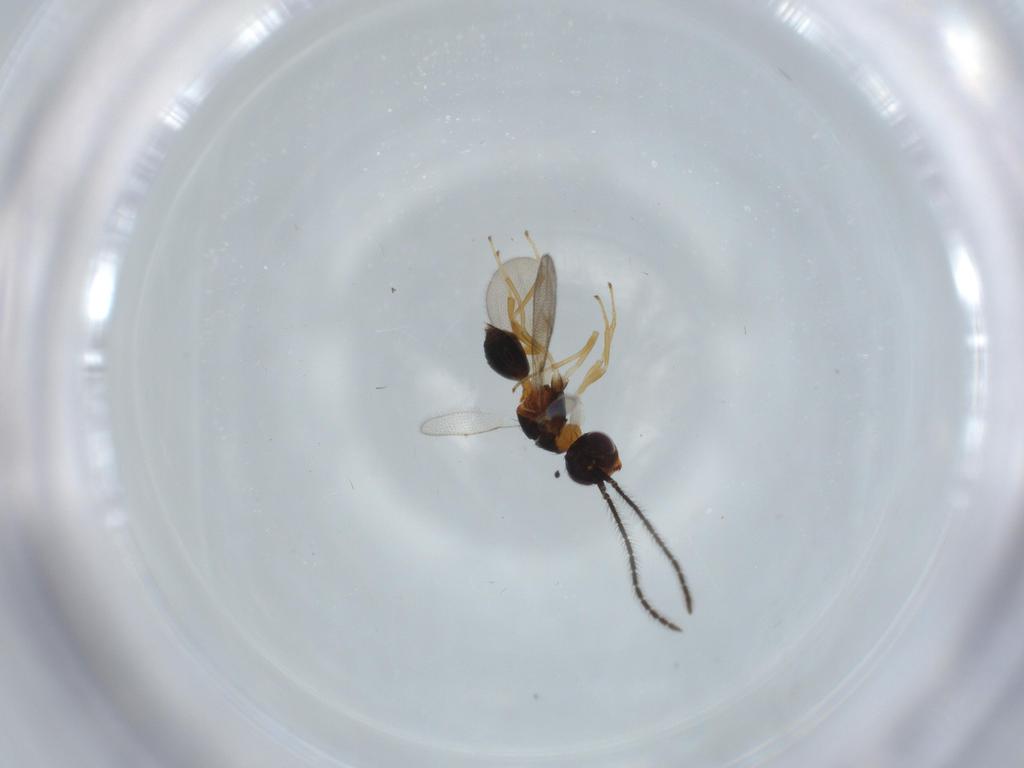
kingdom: Animalia
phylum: Arthropoda
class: Insecta
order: Hymenoptera
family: Diparidae
